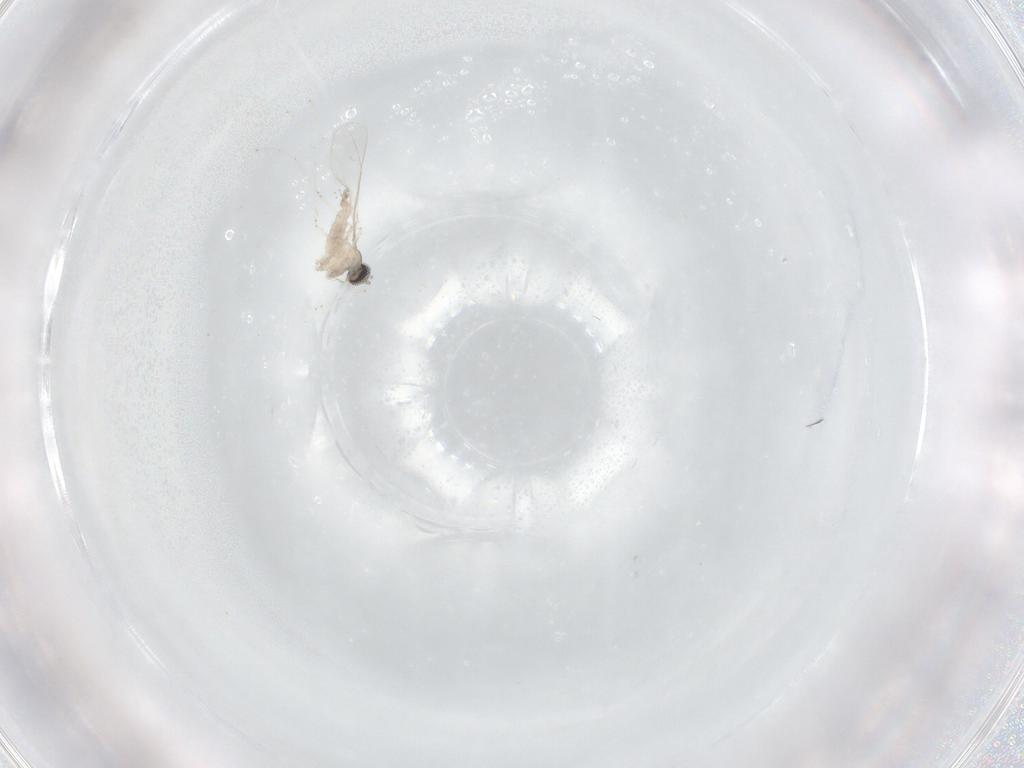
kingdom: Animalia
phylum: Arthropoda
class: Insecta
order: Diptera
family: Cecidomyiidae
